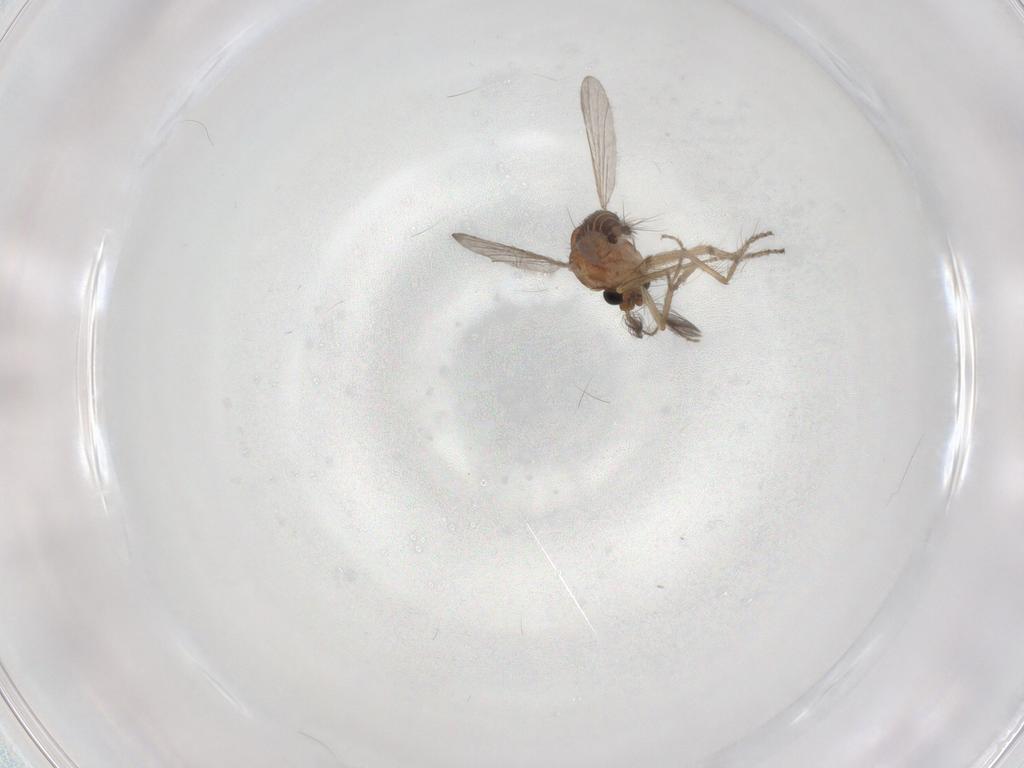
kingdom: Animalia
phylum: Arthropoda
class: Insecta
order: Diptera
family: Ceratopogonidae
